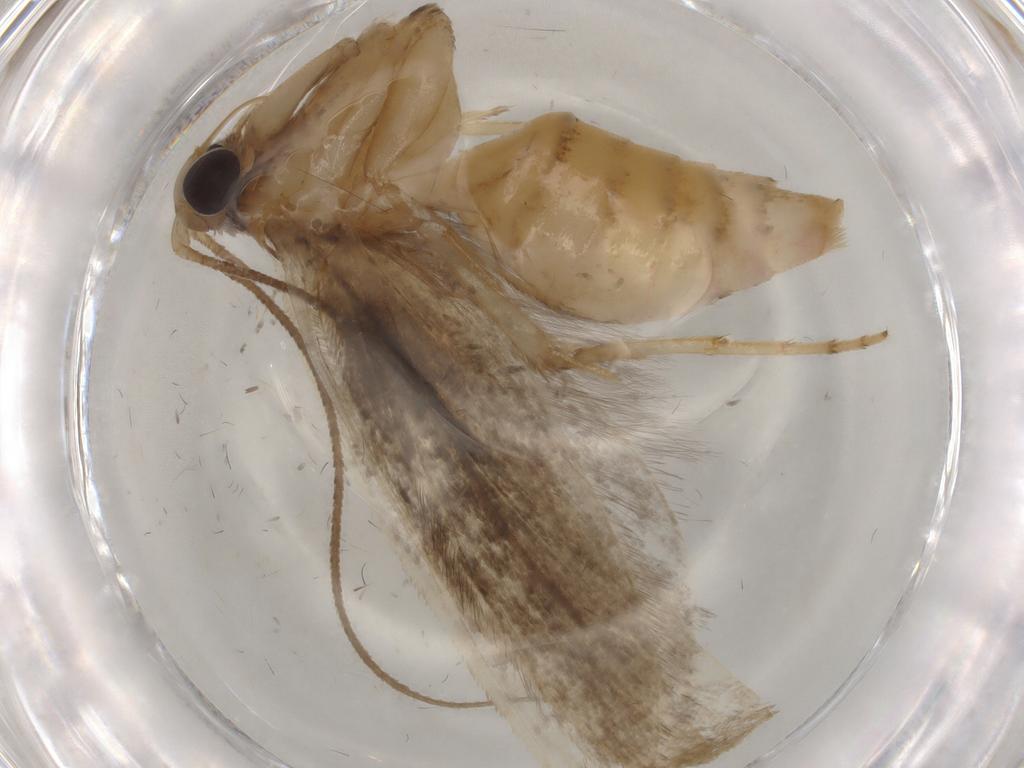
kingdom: Animalia
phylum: Arthropoda
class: Insecta
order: Lepidoptera
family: Yponomeutidae
